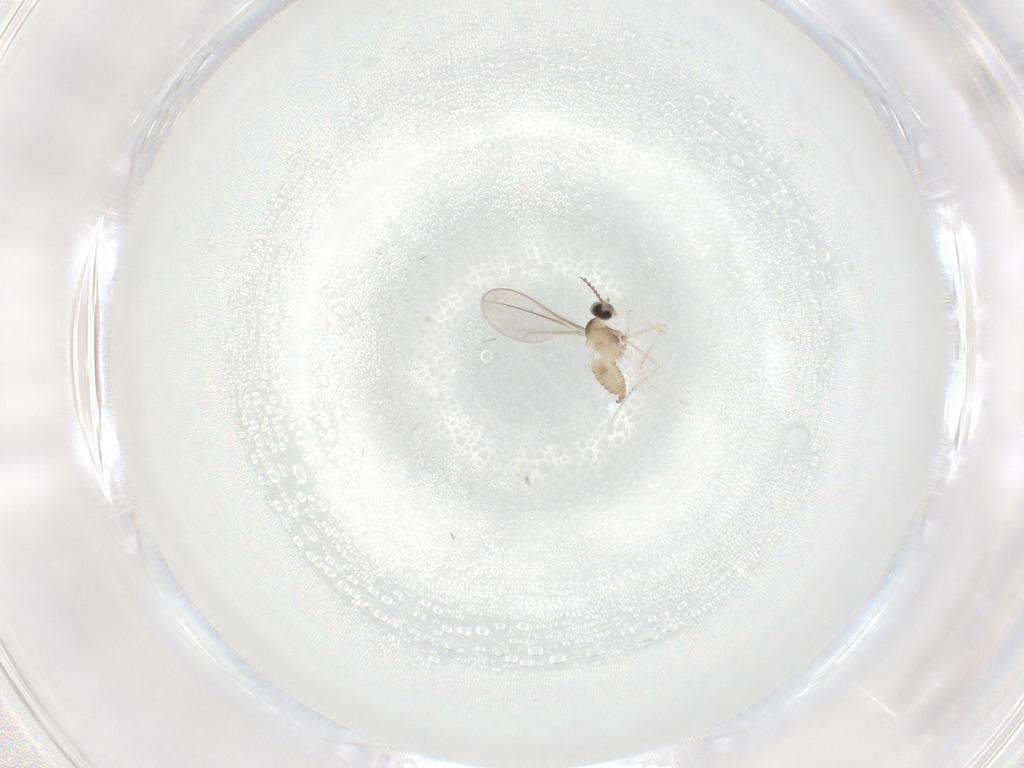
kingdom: Animalia
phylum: Arthropoda
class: Insecta
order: Diptera
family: Cecidomyiidae
